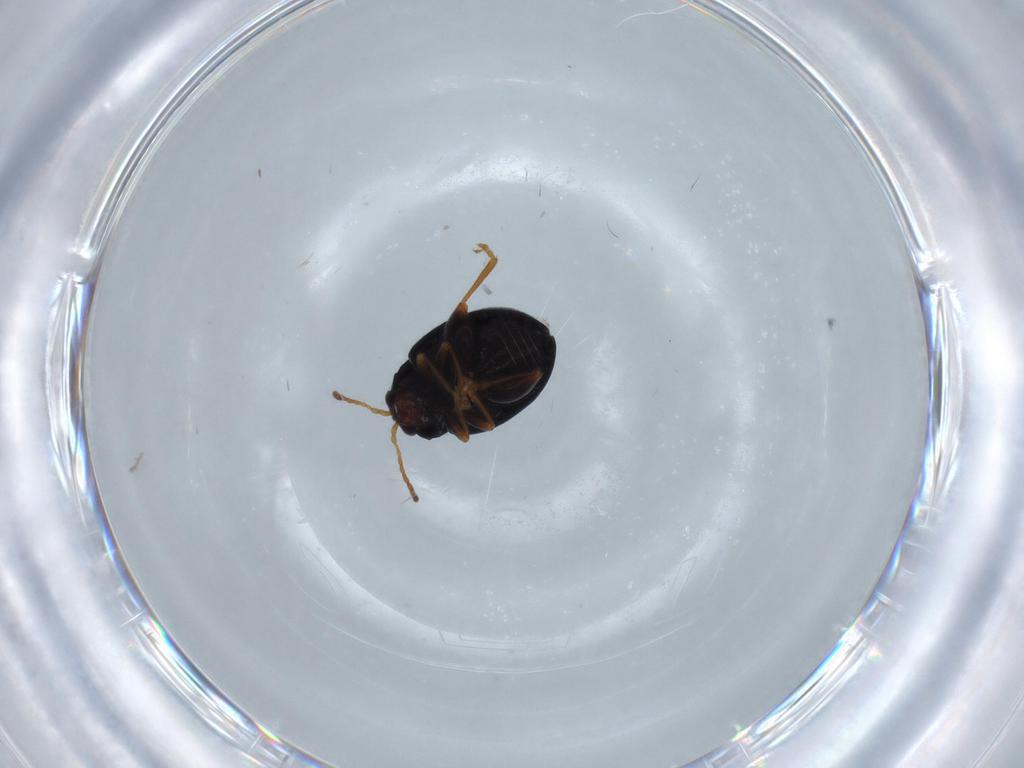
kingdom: Animalia
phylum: Arthropoda
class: Insecta
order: Coleoptera
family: Ptilodactylidae
